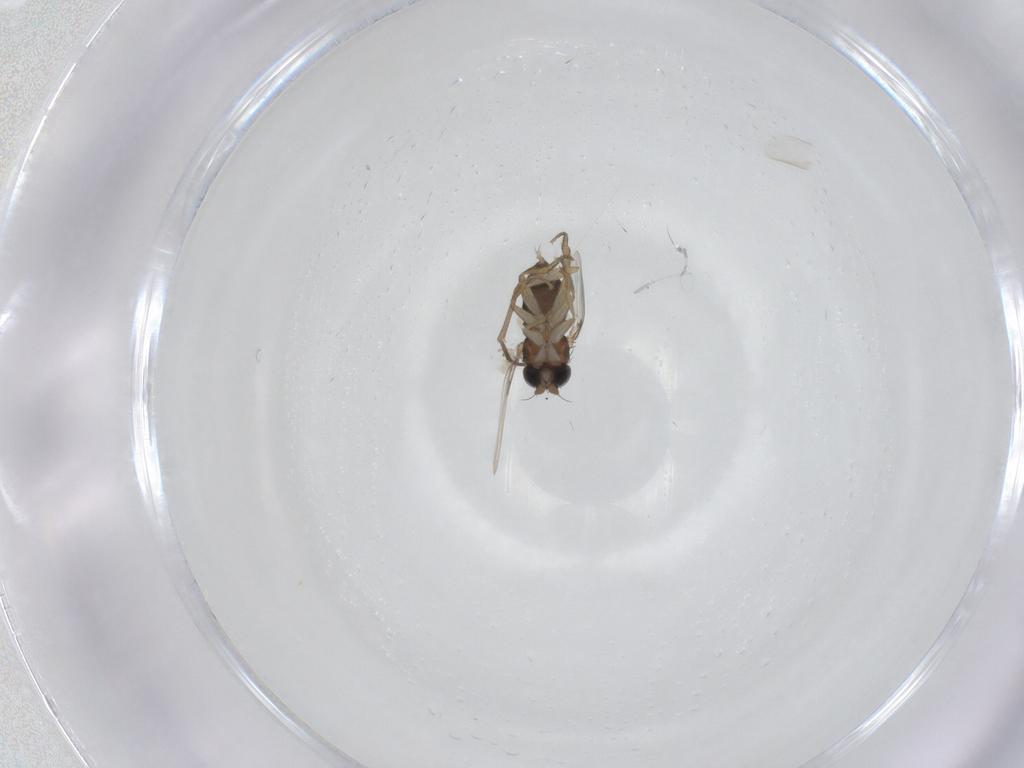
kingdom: Animalia
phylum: Arthropoda
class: Insecta
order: Diptera
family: Phoridae
